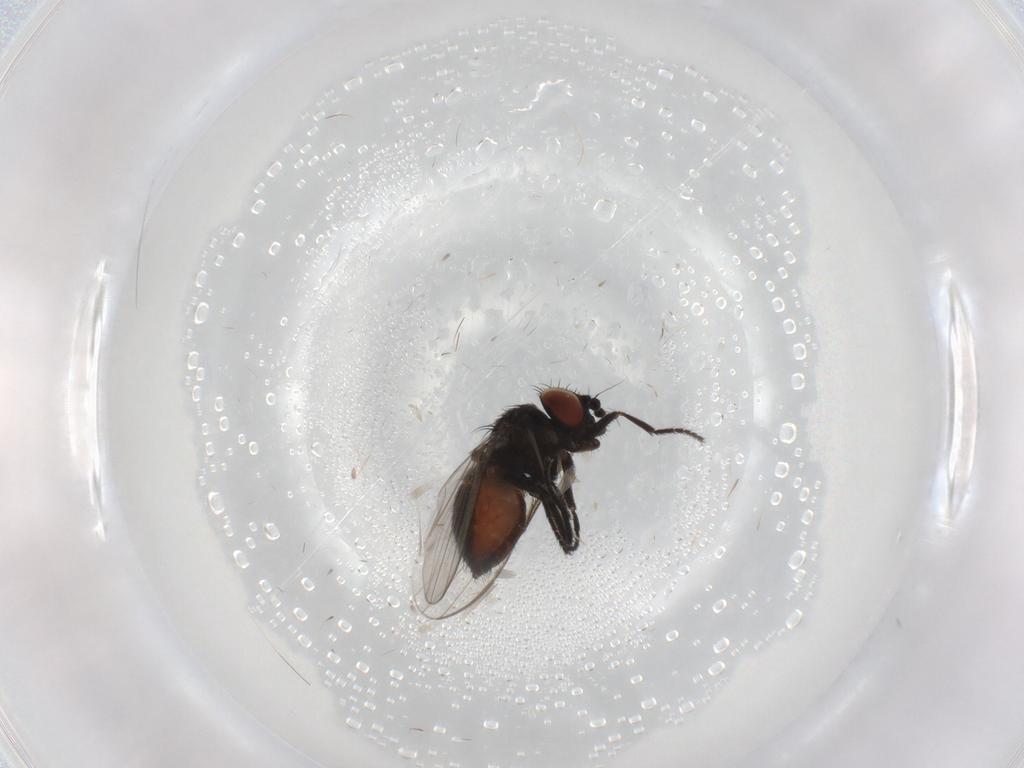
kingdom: Animalia
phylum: Arthropoda
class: Insecta
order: Diptera
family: Milichiidae
